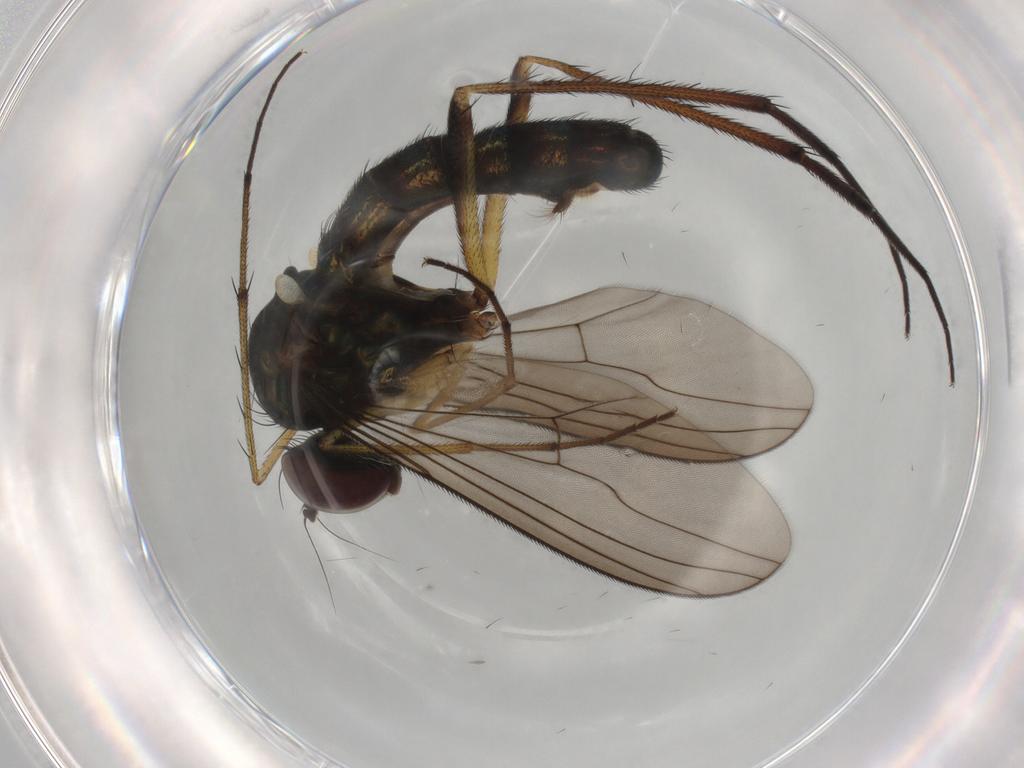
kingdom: Animalia
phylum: Arthropoda
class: Insecta
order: Diptera
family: Dolichopodidae
